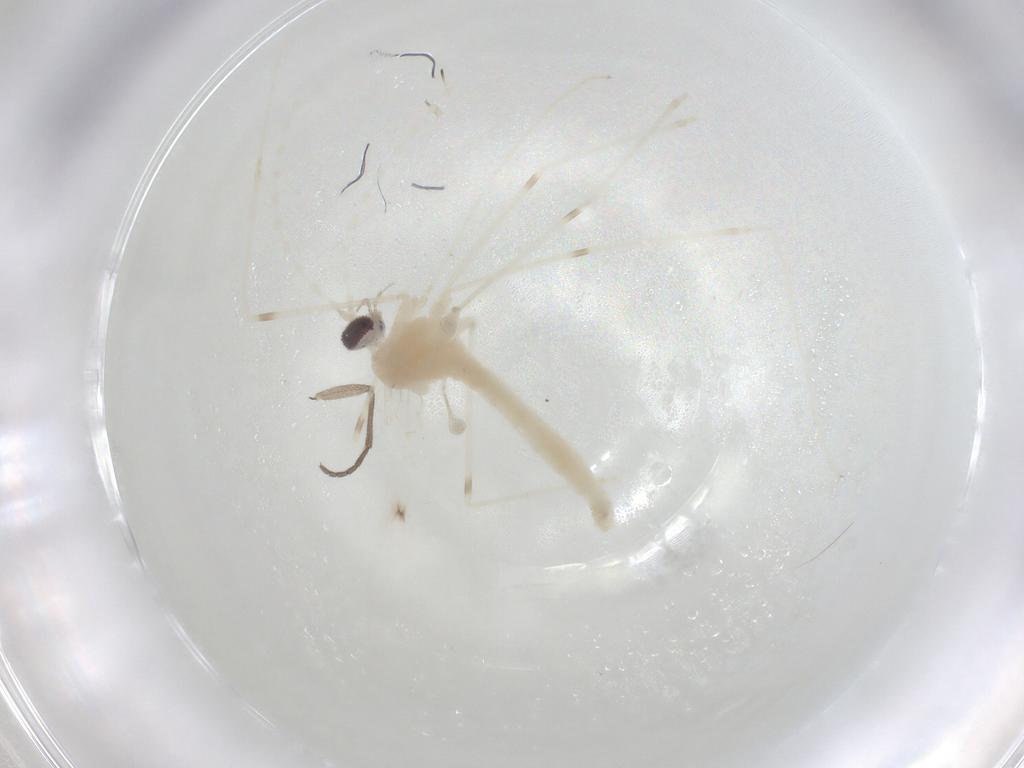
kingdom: Animalia
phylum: Arthropoda
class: Insecta
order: Diptera
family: Cecidomyiidae
